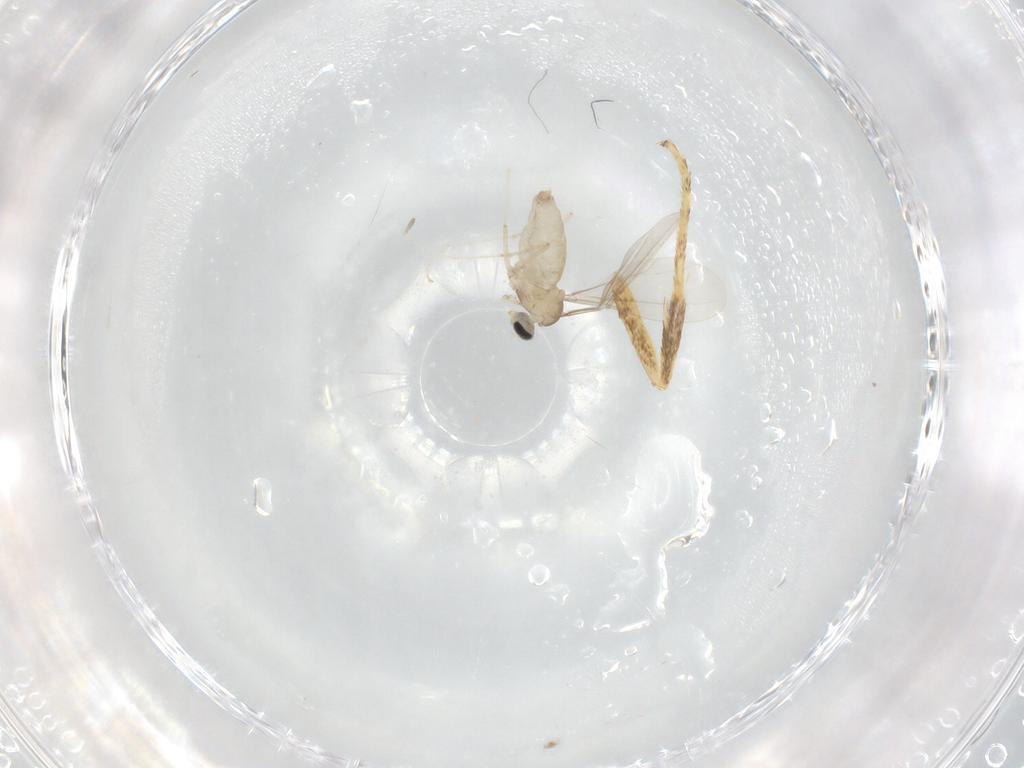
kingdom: Animalia
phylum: Arthropoda
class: Insecta
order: Diptera
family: Cecidomyiidae
